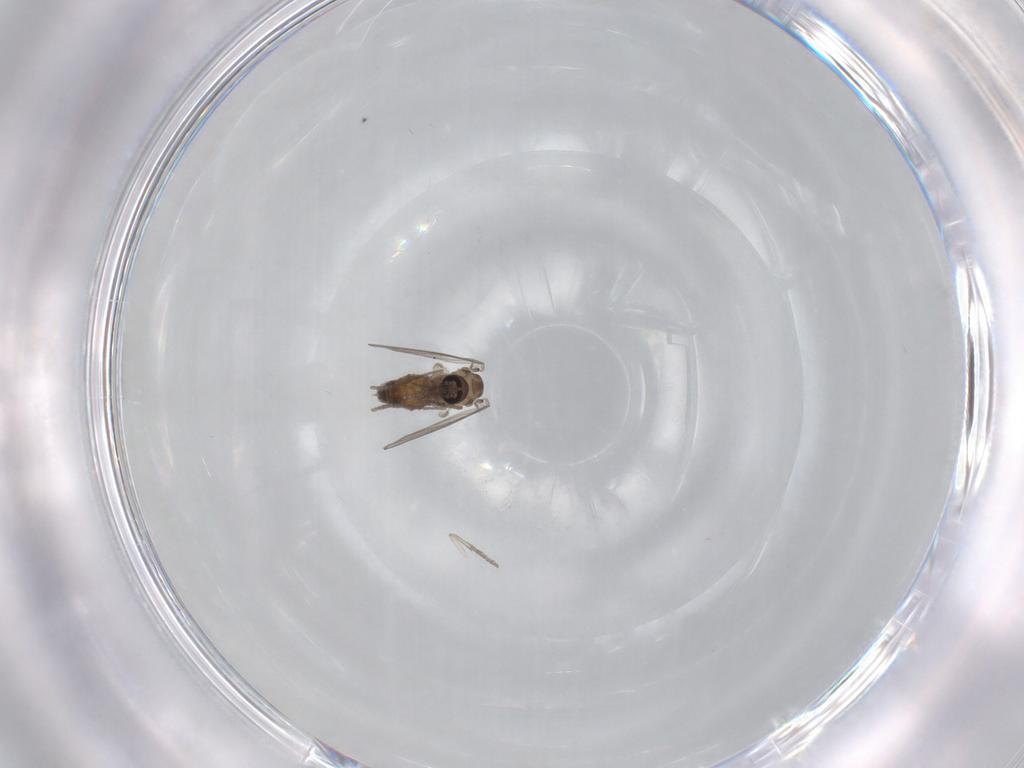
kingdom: Animalia
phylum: Arthropoda
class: Insecta
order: Diptera
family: Psychodidae
